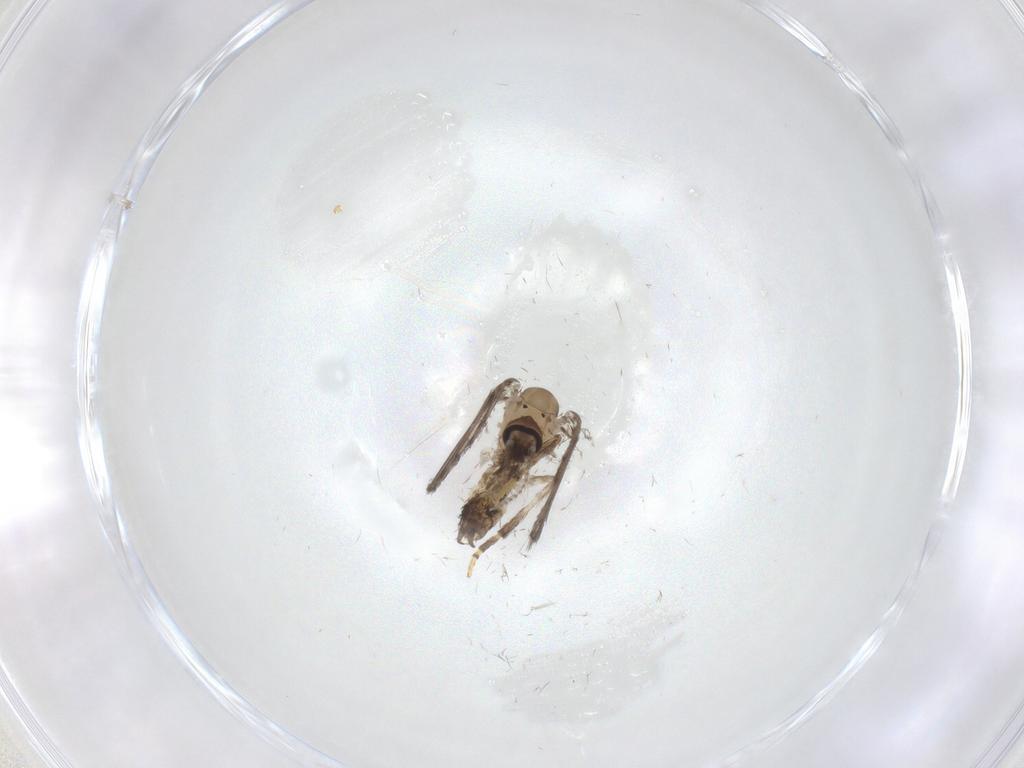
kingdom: Animalia
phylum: Arthropoda
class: Insecta
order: Diptera
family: Psychodidae
